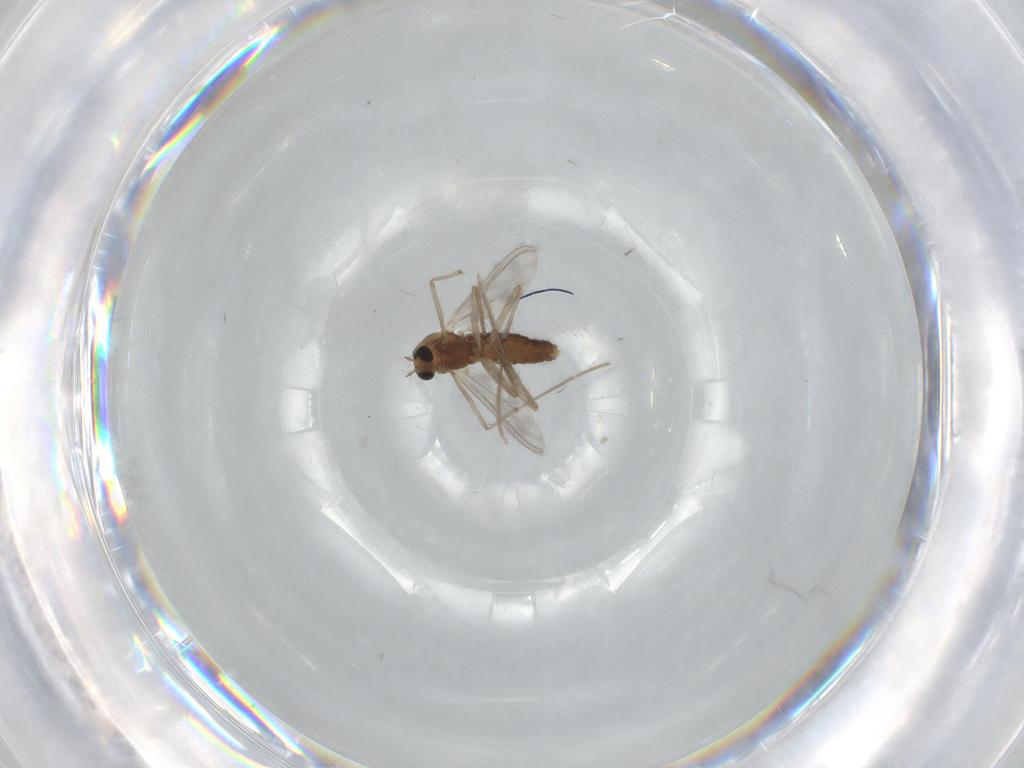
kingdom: Animalia
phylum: Arthropoda
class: Insecta
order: Diptera
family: Chironomidae
